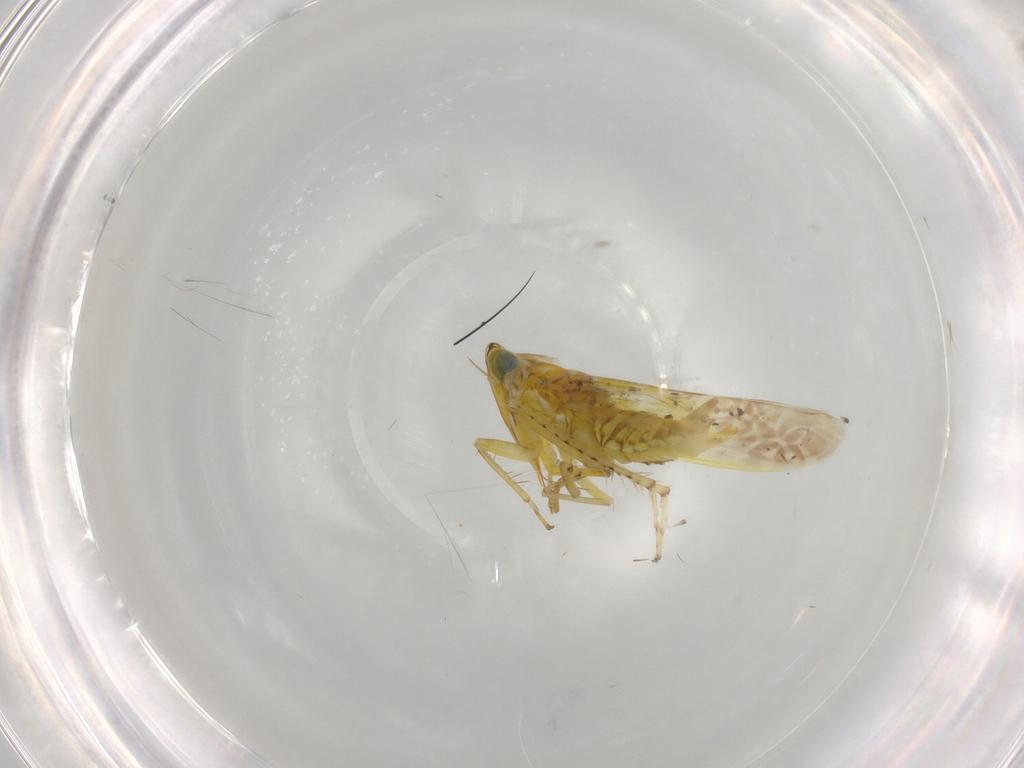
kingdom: Animalia
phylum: Arthropoda
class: Insecta
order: Hemiptera
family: Cicadellidae
